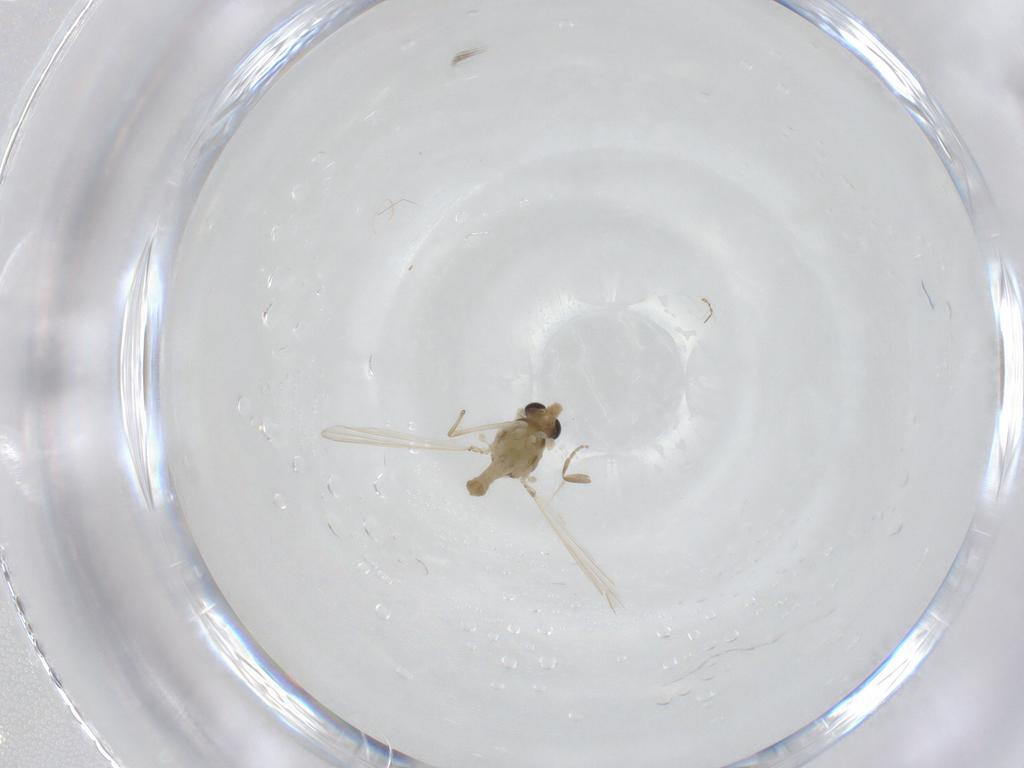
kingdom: Animalia
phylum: Arthropoda
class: Insecta
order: Diptera
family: Chironomidae
